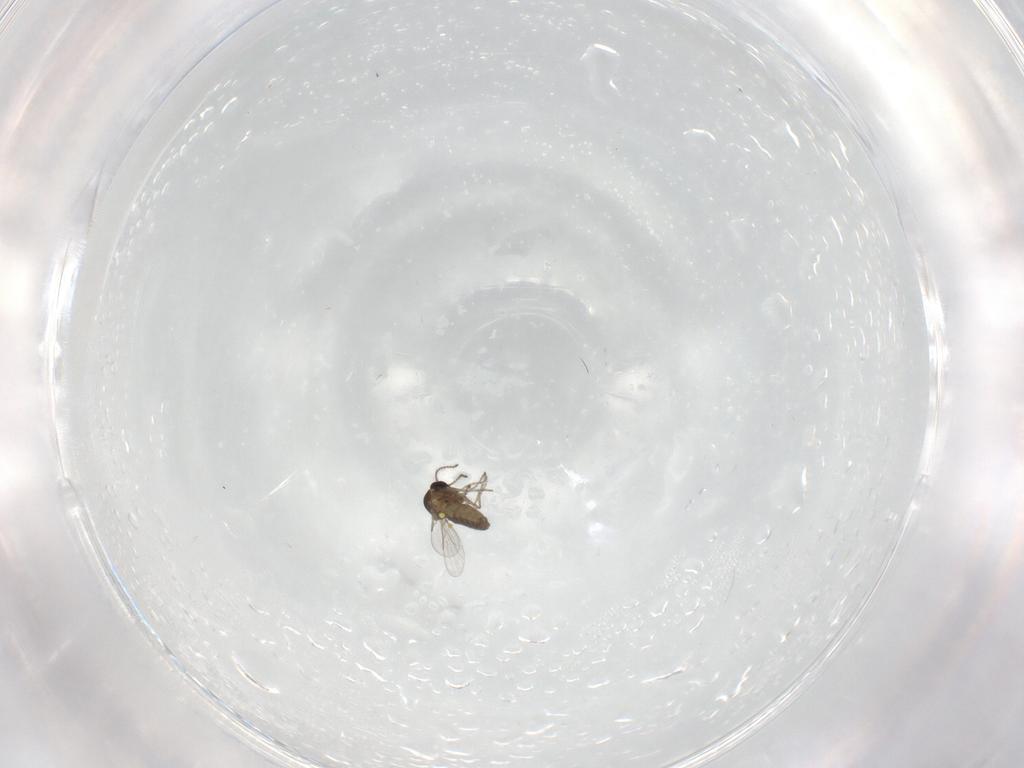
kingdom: Animalia
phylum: Arthropoda
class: Insecta
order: Diptera
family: Ceratopogonidae
